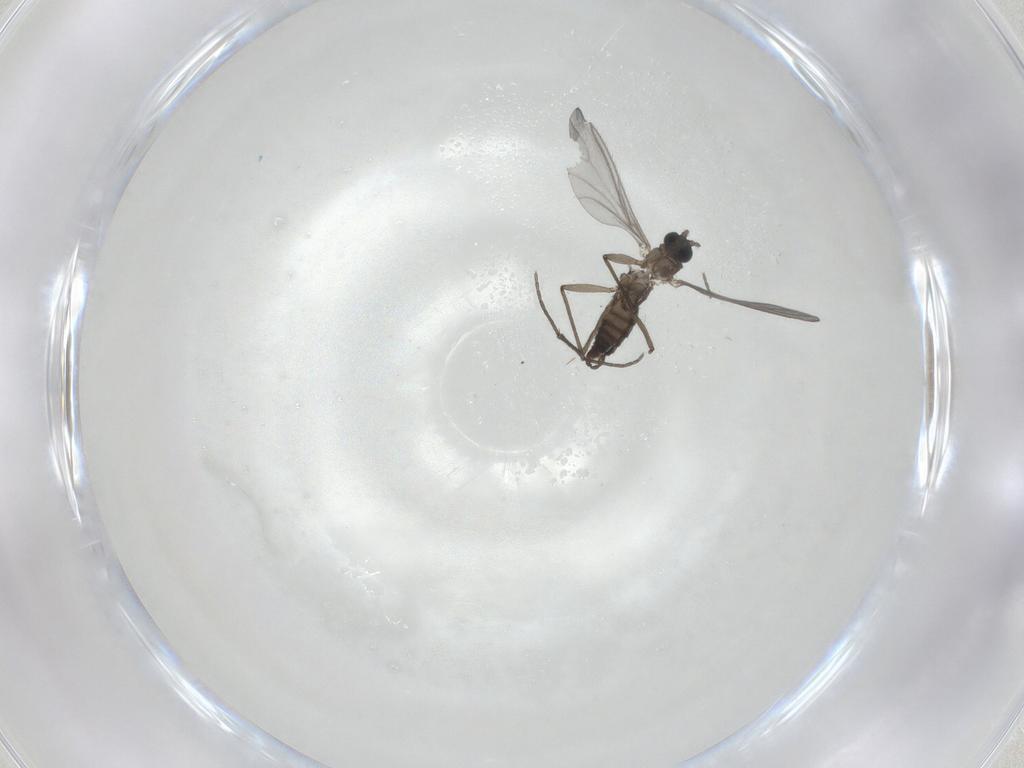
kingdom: Animalia
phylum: Arthropoda
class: Insecta
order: Diptera
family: Sciaridae
